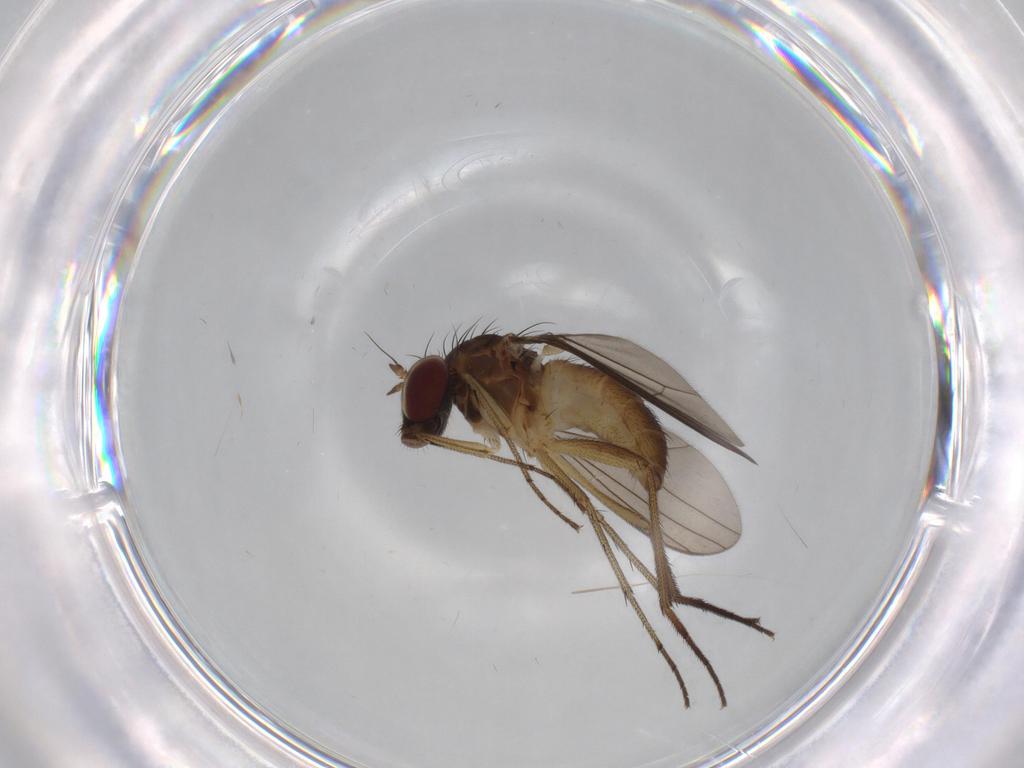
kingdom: Animalia
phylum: Arthropoda
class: Insecta
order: Diptera
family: Dolichopodidae
